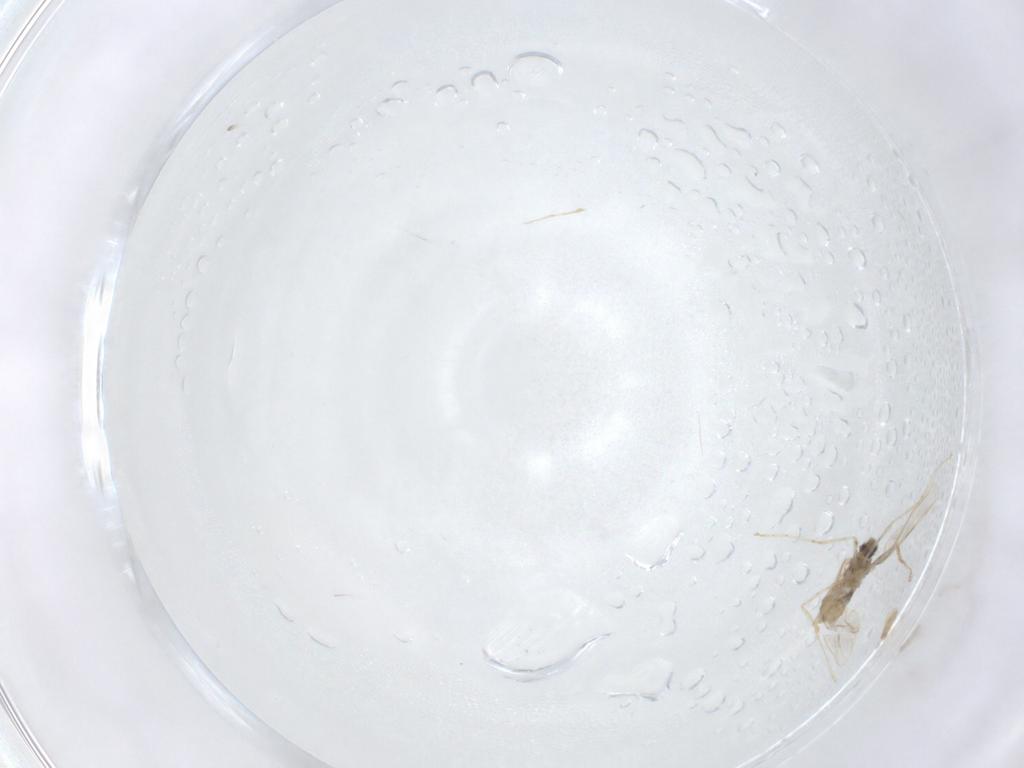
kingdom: Animalia
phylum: Arthropoda
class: Insecta
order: Diptera
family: Cecidomyiidae
